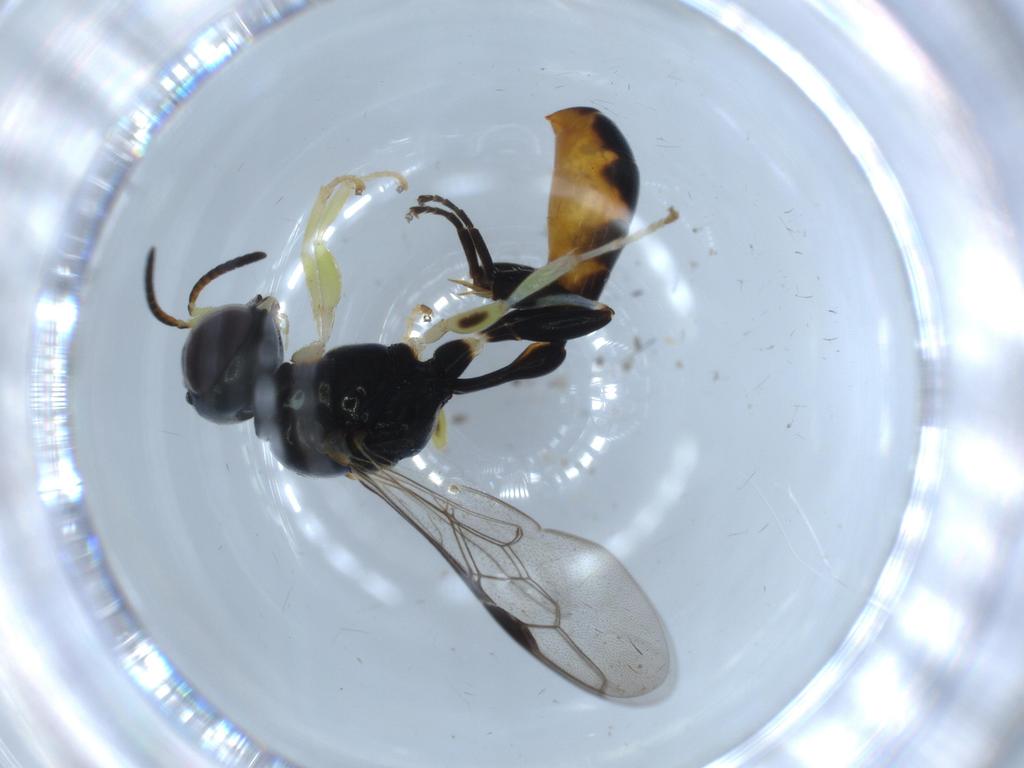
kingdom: Animalia
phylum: Arthropoda
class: Insecta
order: Hymenoptera
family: Crabronidae
